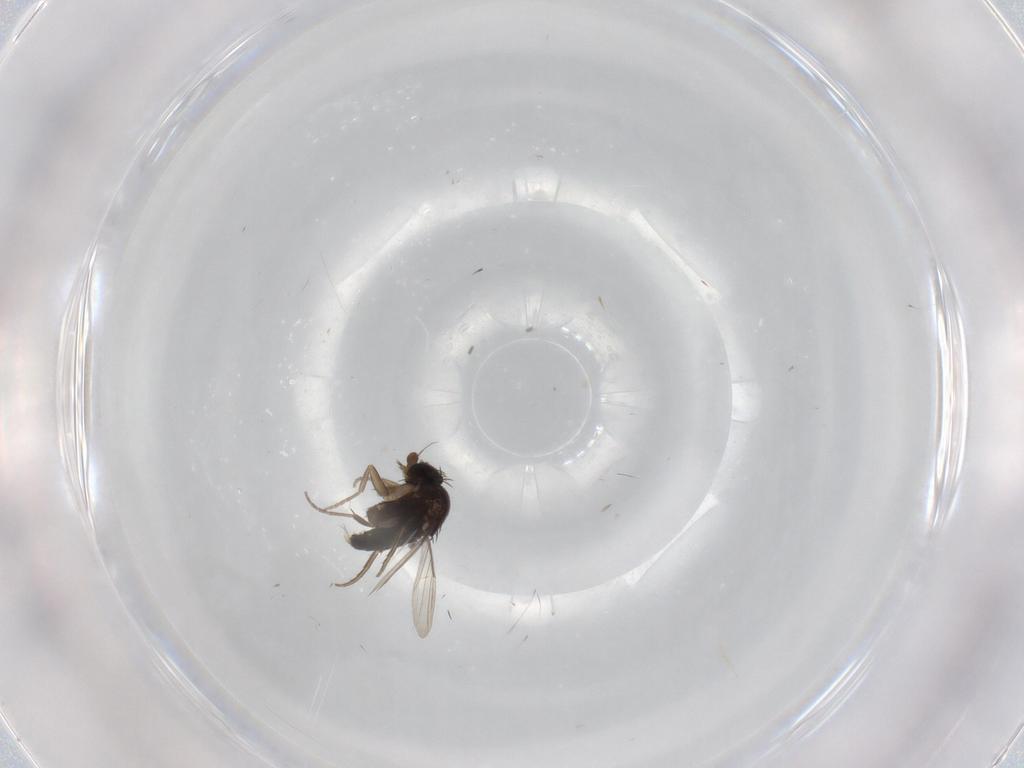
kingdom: Animalia
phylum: Arthropoda
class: Insecta
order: Diptera
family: Phoridae
